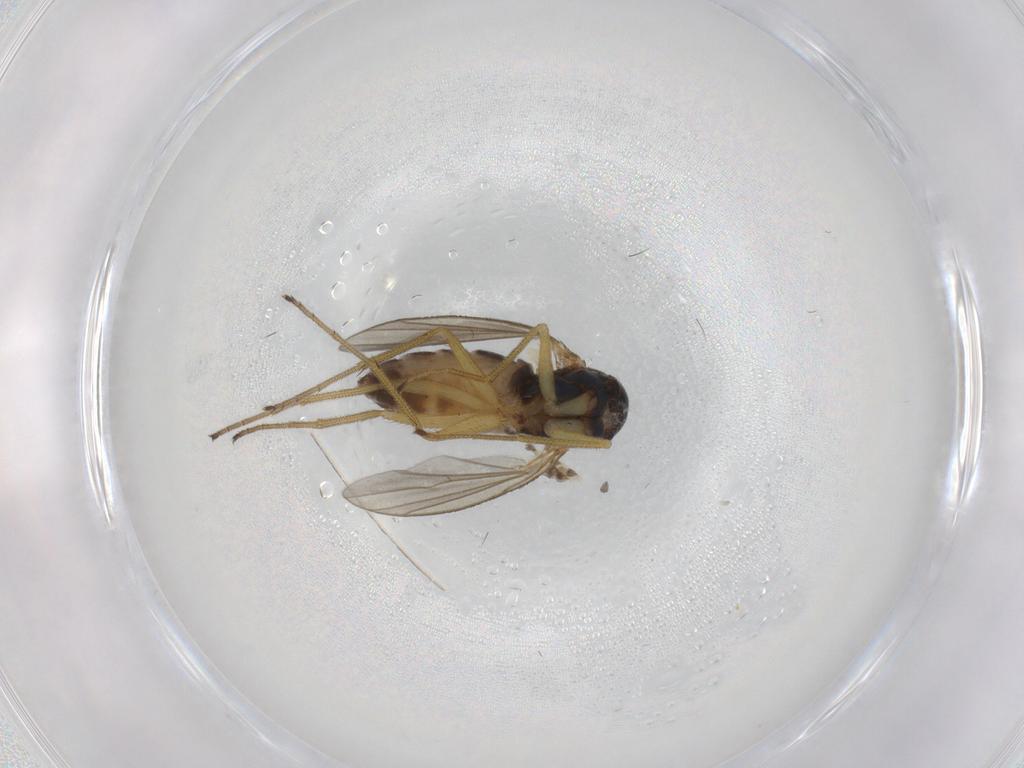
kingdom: Animalia
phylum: Arthropoda
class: Insecta
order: Diptera
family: Dolichopodidae
